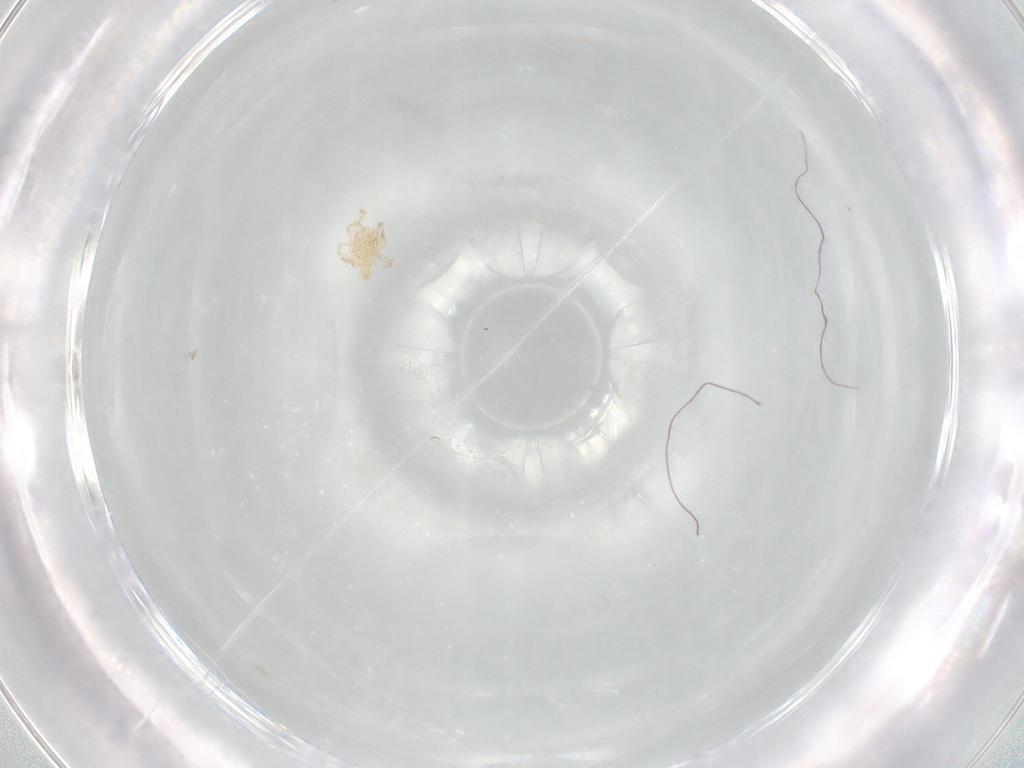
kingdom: Animalia
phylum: Arthropoda
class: Arachnida
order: Trombidiformes
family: Erythraeidae
